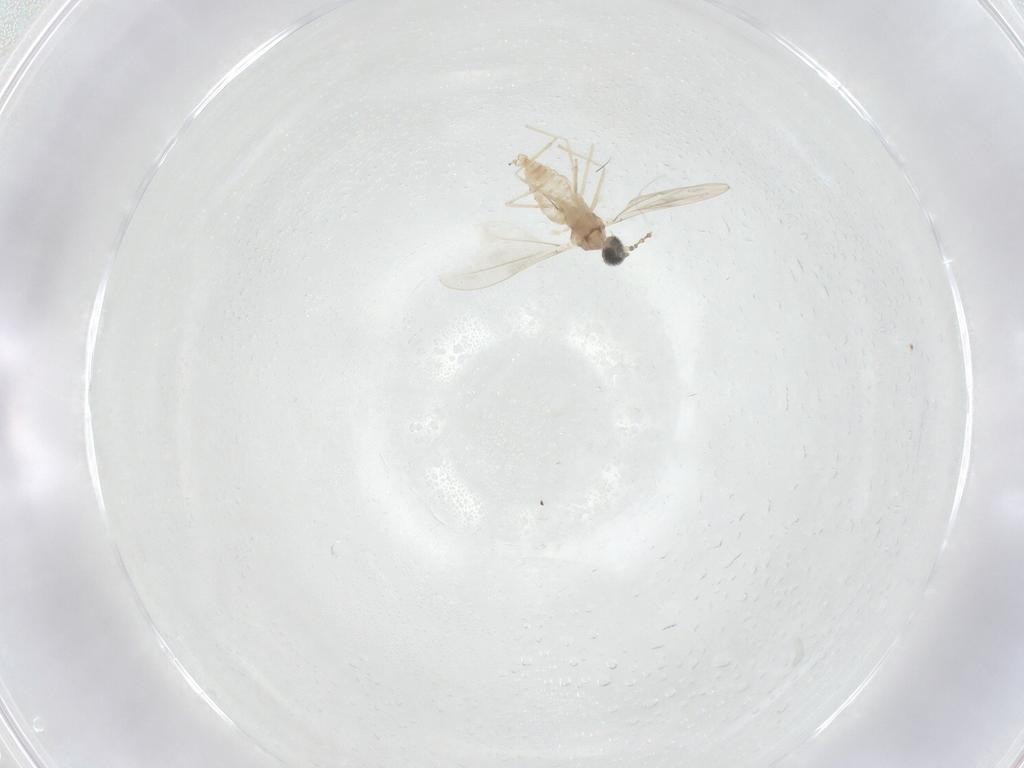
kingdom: Animalia
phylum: Arthropoda
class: Insecta
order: Diptera
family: Cecidomyiidae
